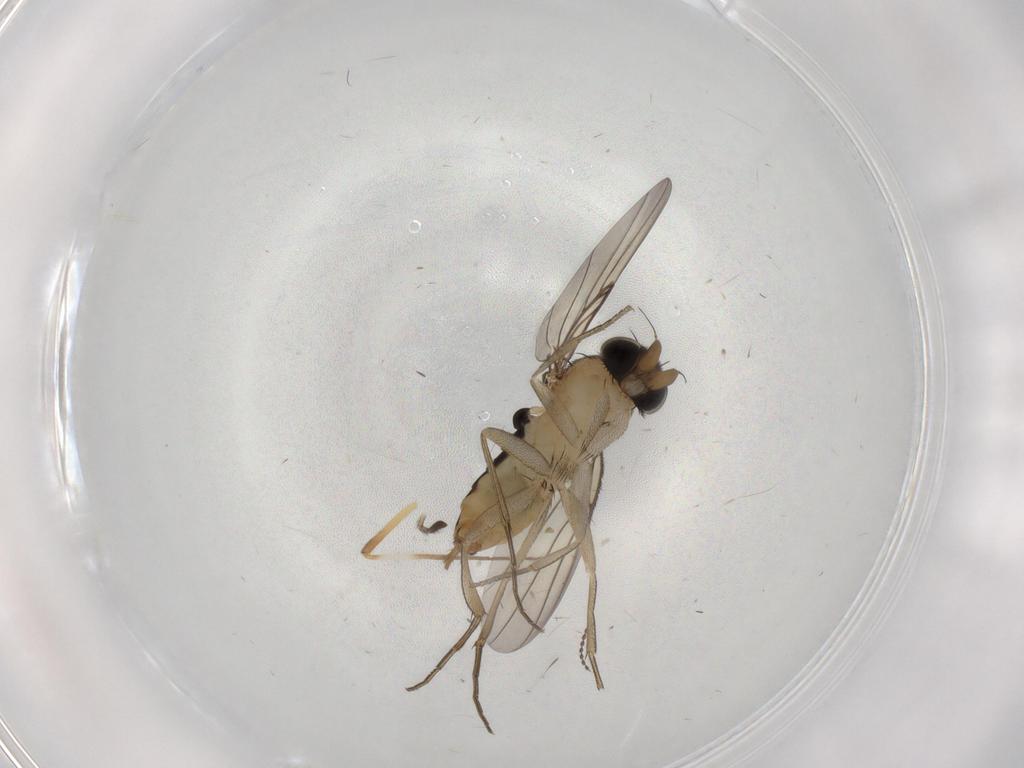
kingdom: Animalia
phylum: Arthropoda
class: Insecta
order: Diptera
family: Phoridae
